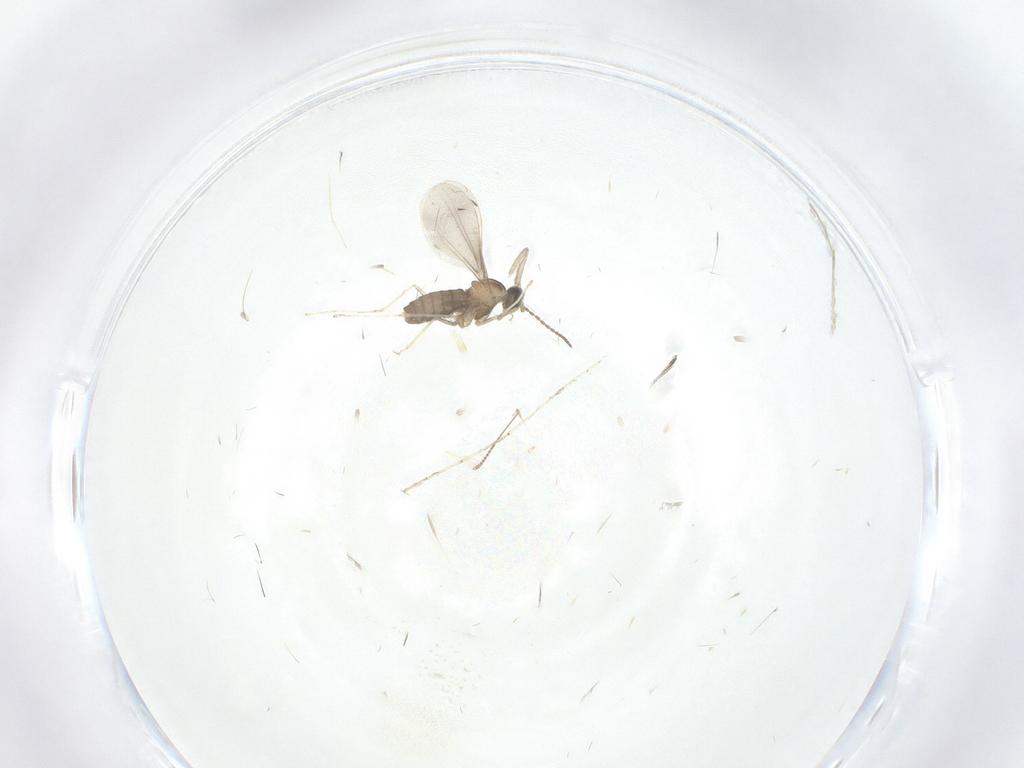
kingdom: Animalia
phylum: Arthropoda
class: Insecta
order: Diptera
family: Cecidomyiidae
